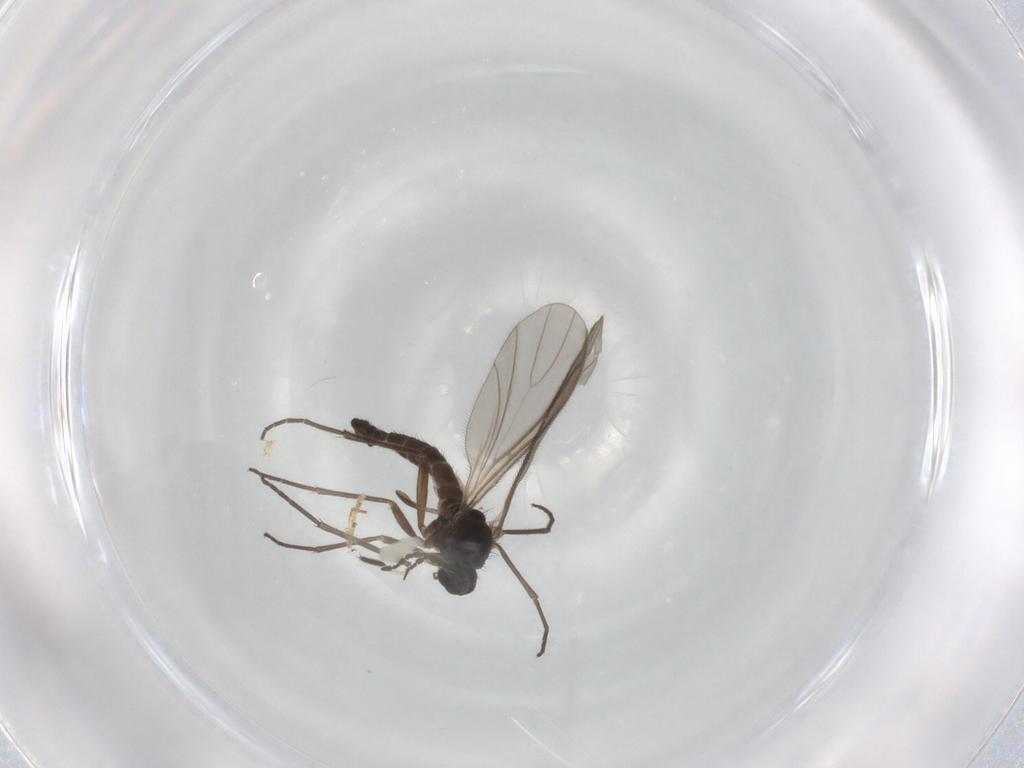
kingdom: Animalia
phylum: Arthropoda
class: Insecta
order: Diptera
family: Sciaridae
